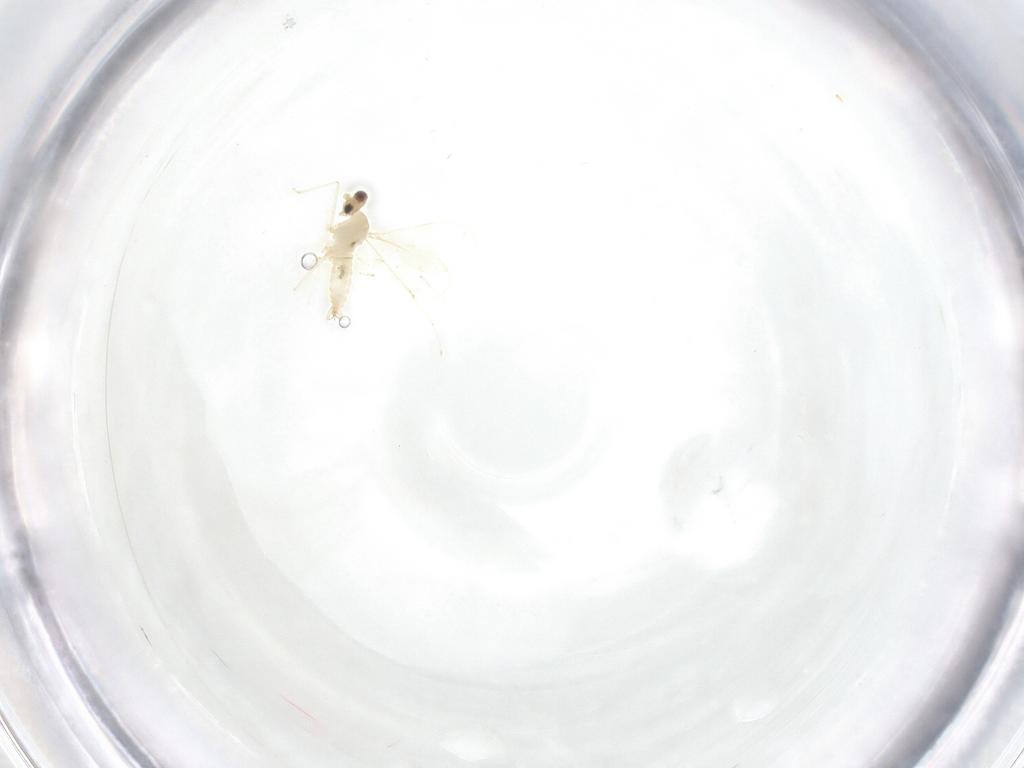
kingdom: Animalia
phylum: Arthropoda
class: Insecta
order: Diptera
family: Cecidomyiidae
